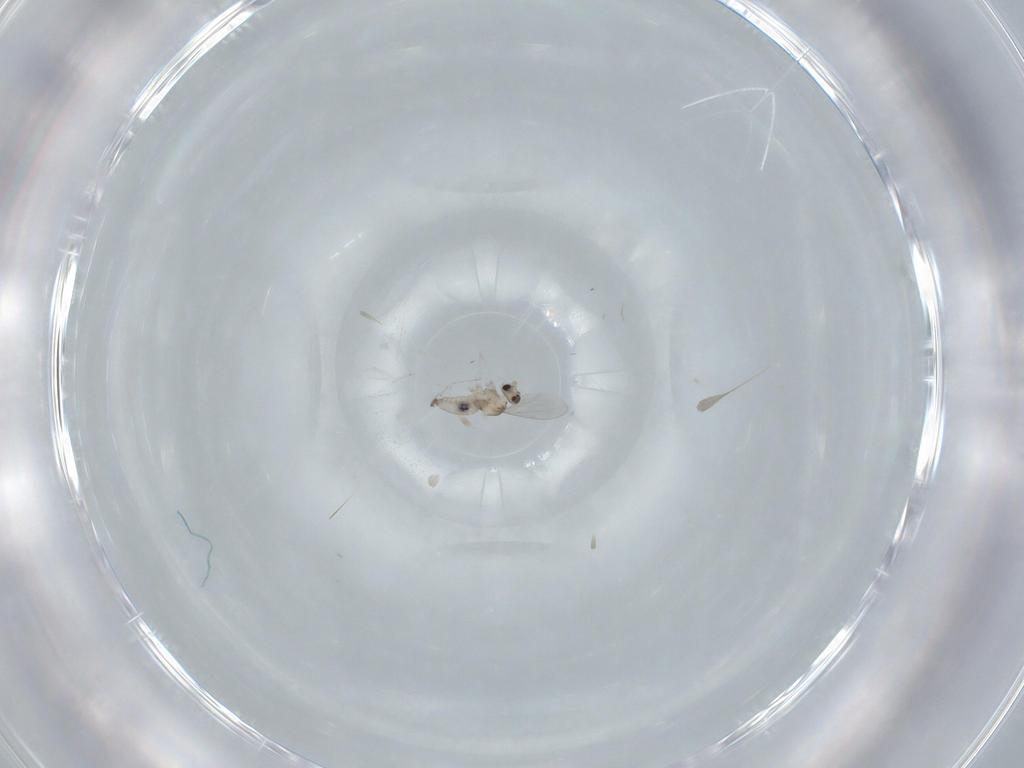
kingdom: Animalia
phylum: Arthropoda
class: Insecta
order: Diptera
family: Cecidomyiidae
